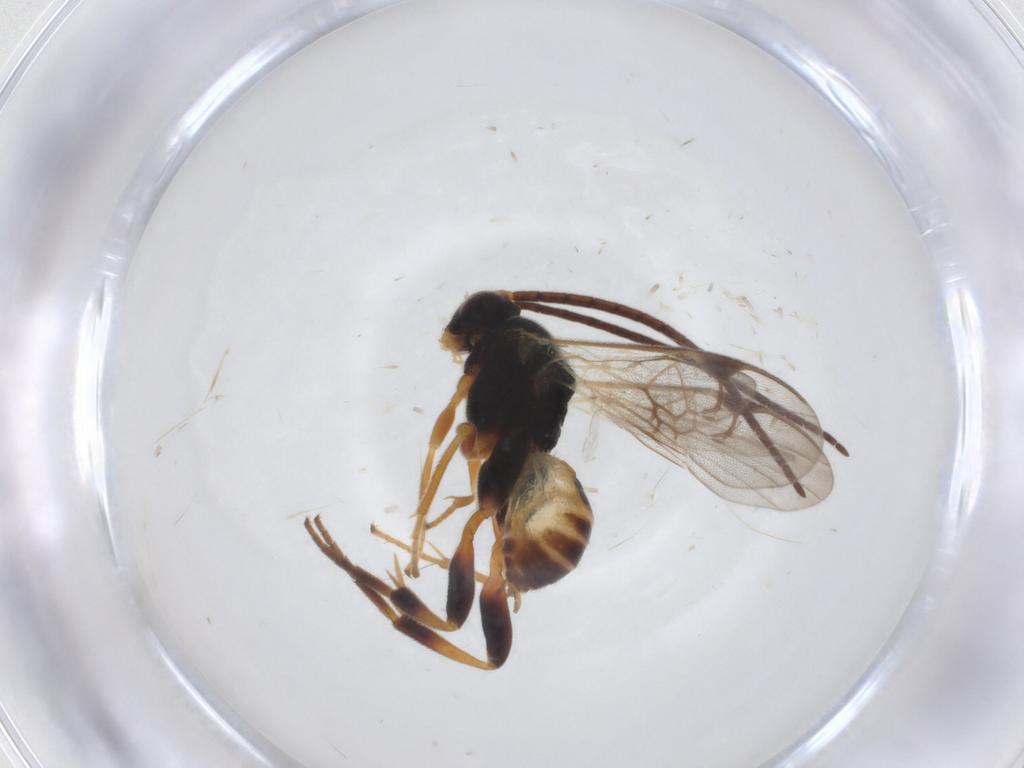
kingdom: Animalia
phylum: Arthropoda
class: Insecta
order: Hymenoptera
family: Braconidae
